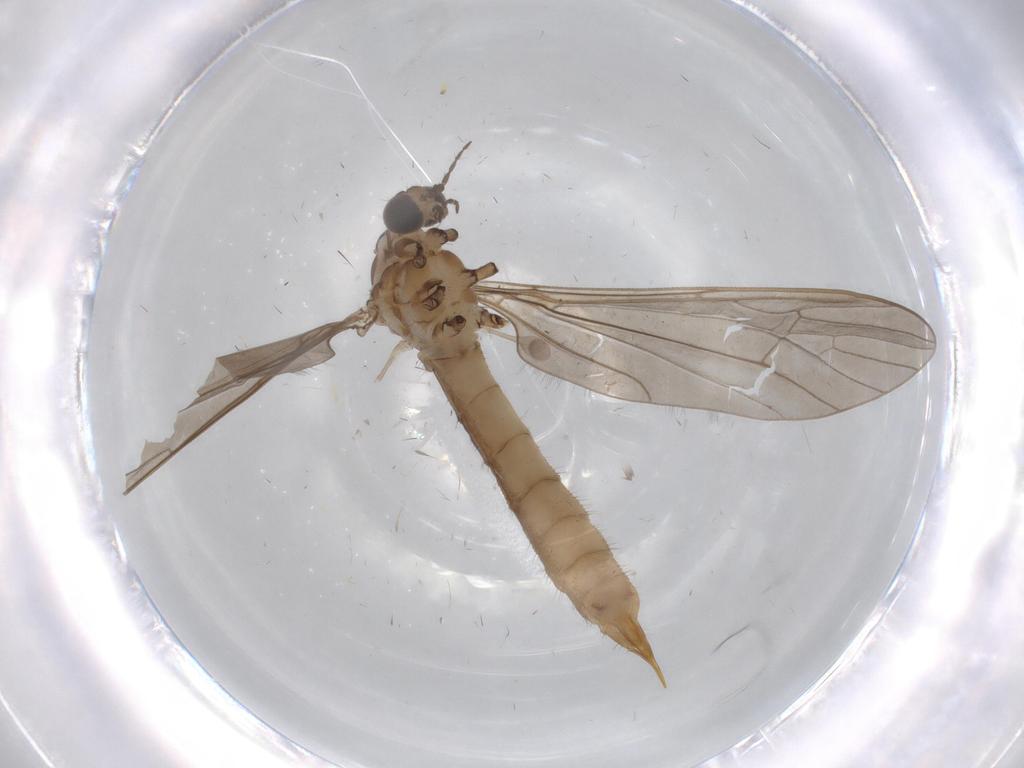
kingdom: Animalia
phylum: Arthropoda
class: Insecta
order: Diptera
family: Limoniidae
